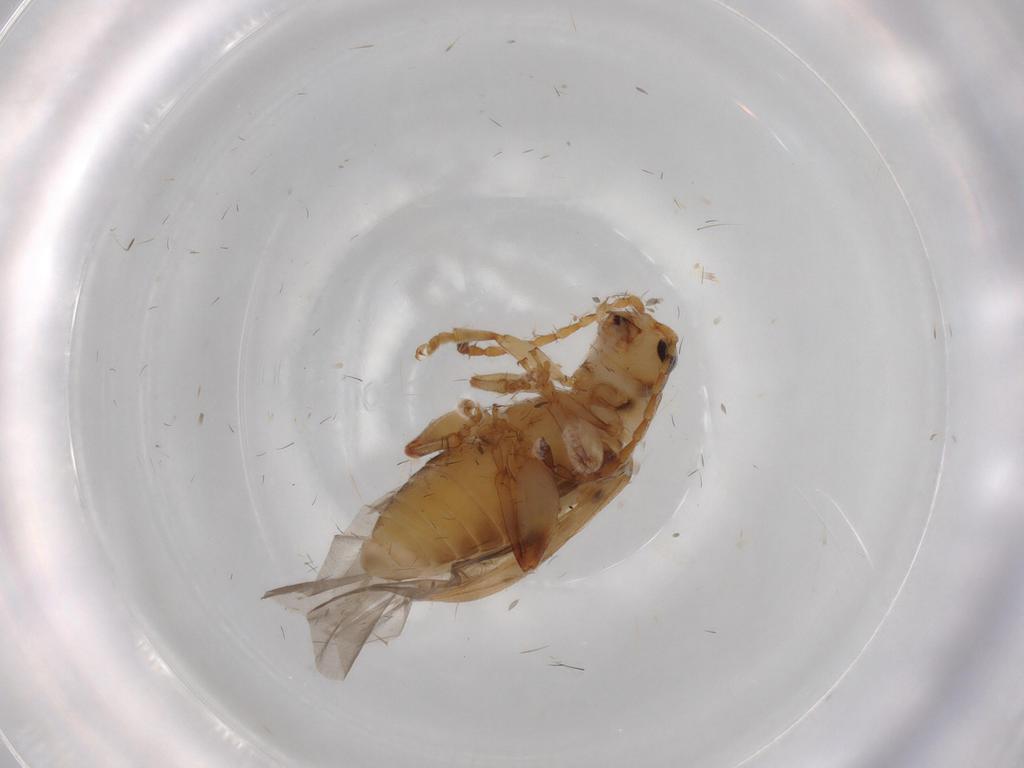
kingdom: Animalia
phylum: Arthropoda
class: Insecta
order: Coleoptera
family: Chrysomelidae
